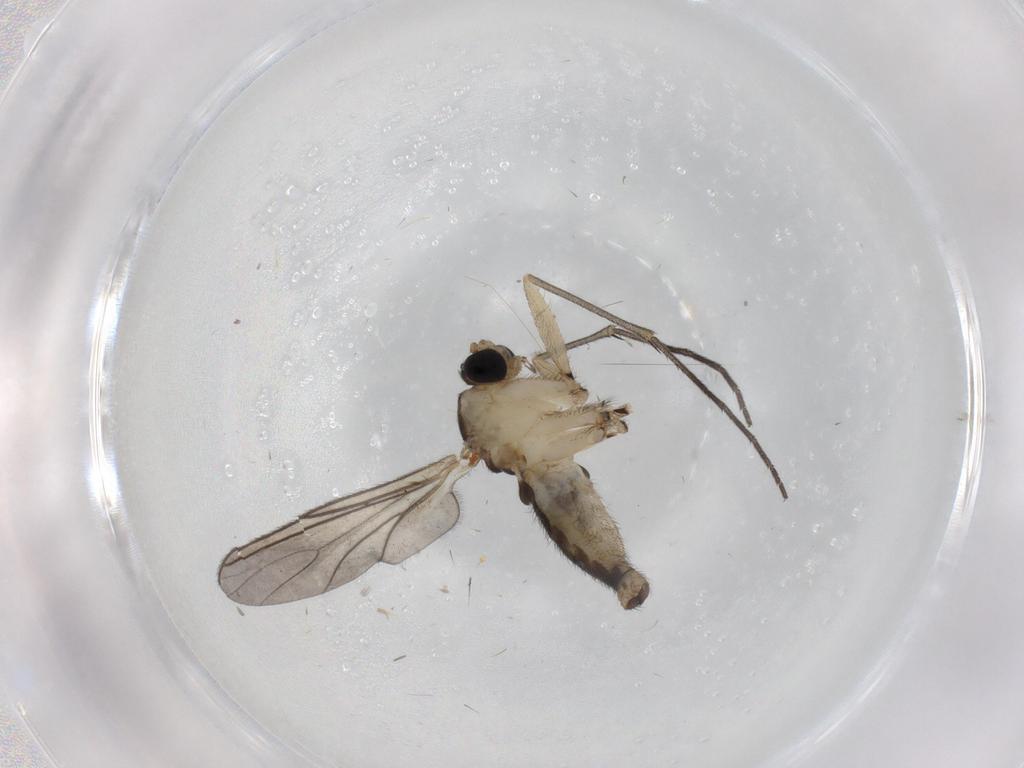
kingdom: Animalia
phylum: Arthropoda
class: Insecta
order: Diptera
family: Sciaridae
